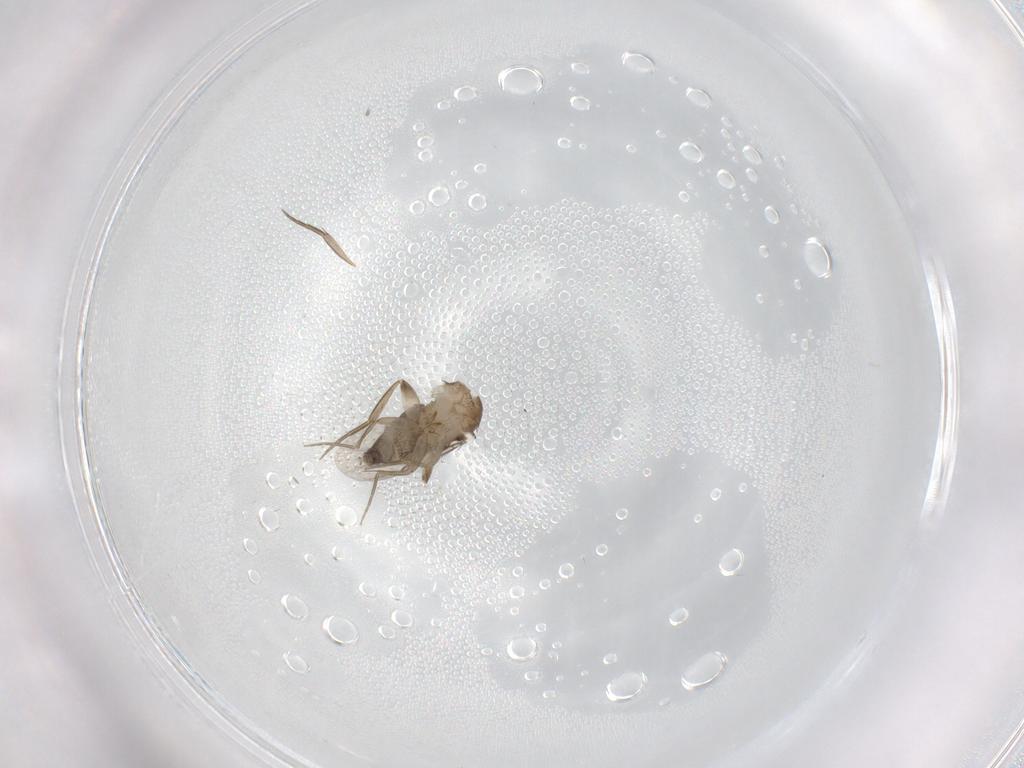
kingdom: Animalia
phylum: Arthropoda
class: Insecta
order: Diptera
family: Phoridae
